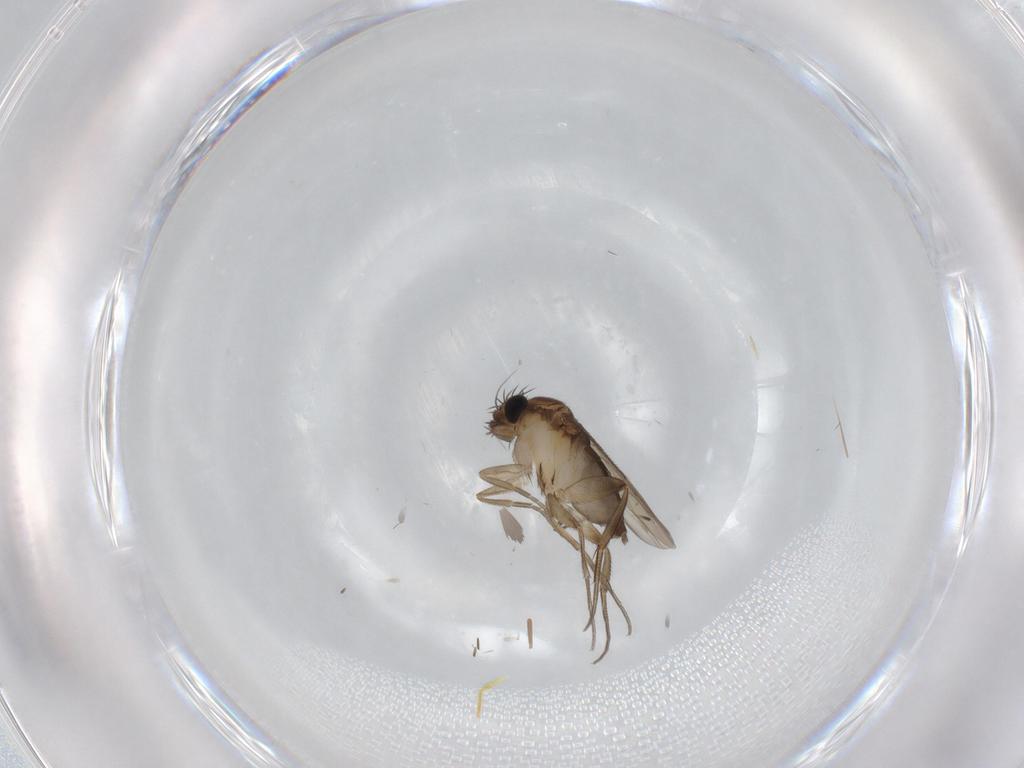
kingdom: Animalia
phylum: Arthropoda
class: Insecta
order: Diptera
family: Phoridae
